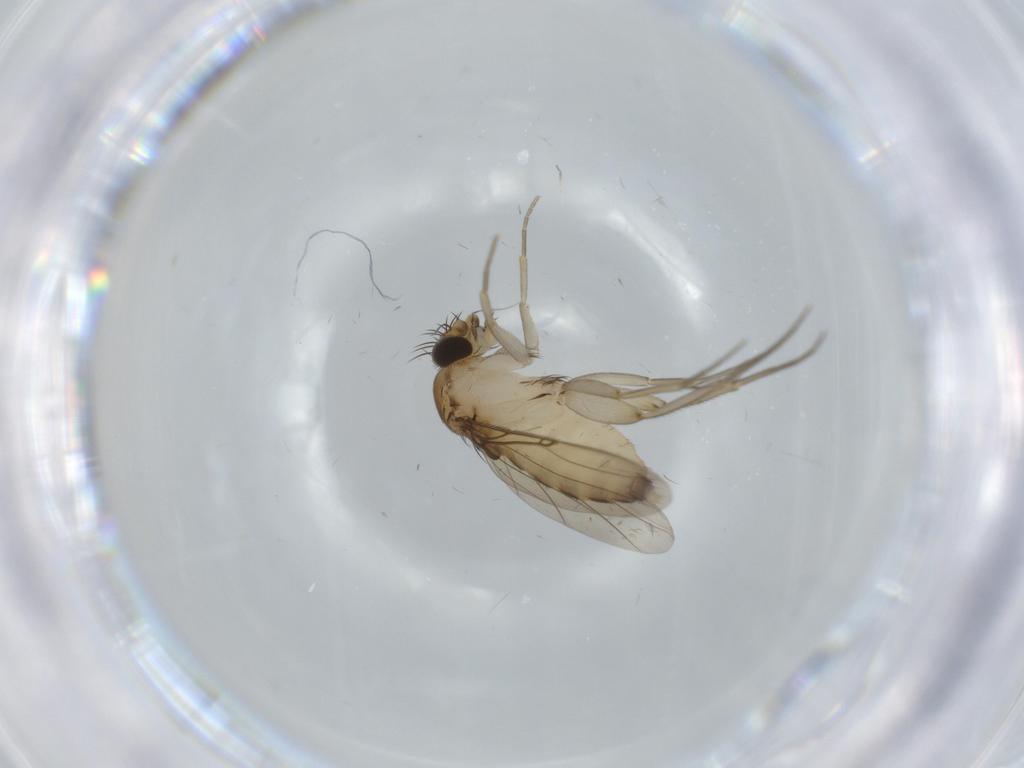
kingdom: Animalia
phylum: Arthropoda
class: Insecta
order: Diptera
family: Phoridae
